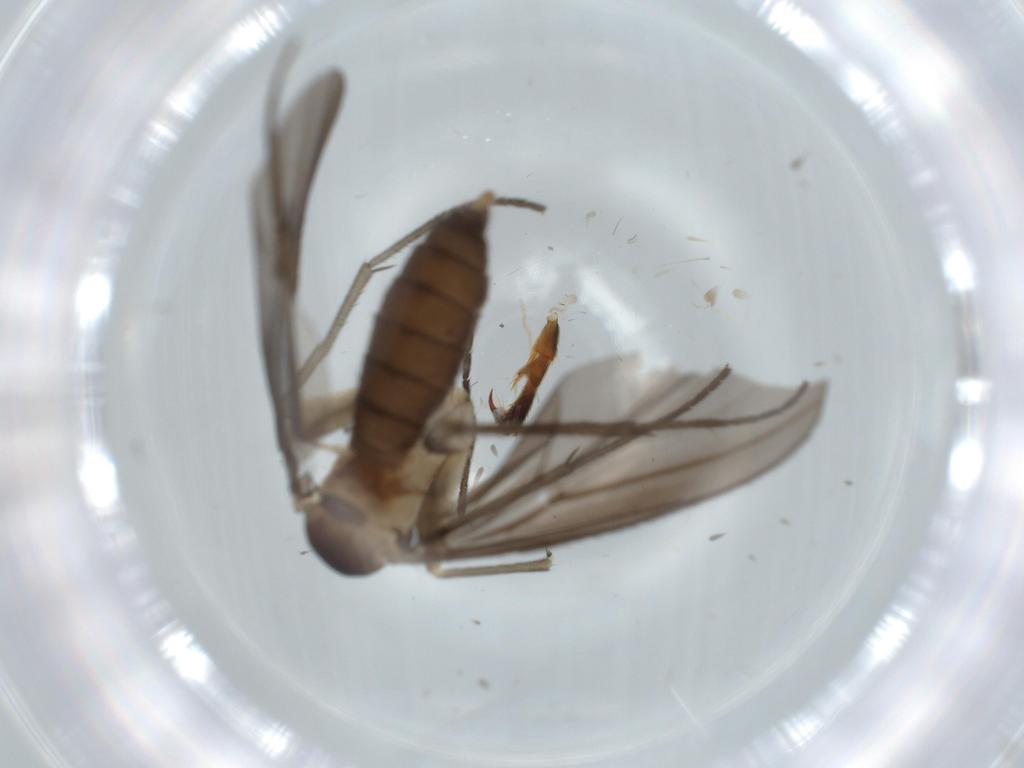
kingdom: Animalia
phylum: Arthropoda
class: Insecta
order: Diptera
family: Phoridae
